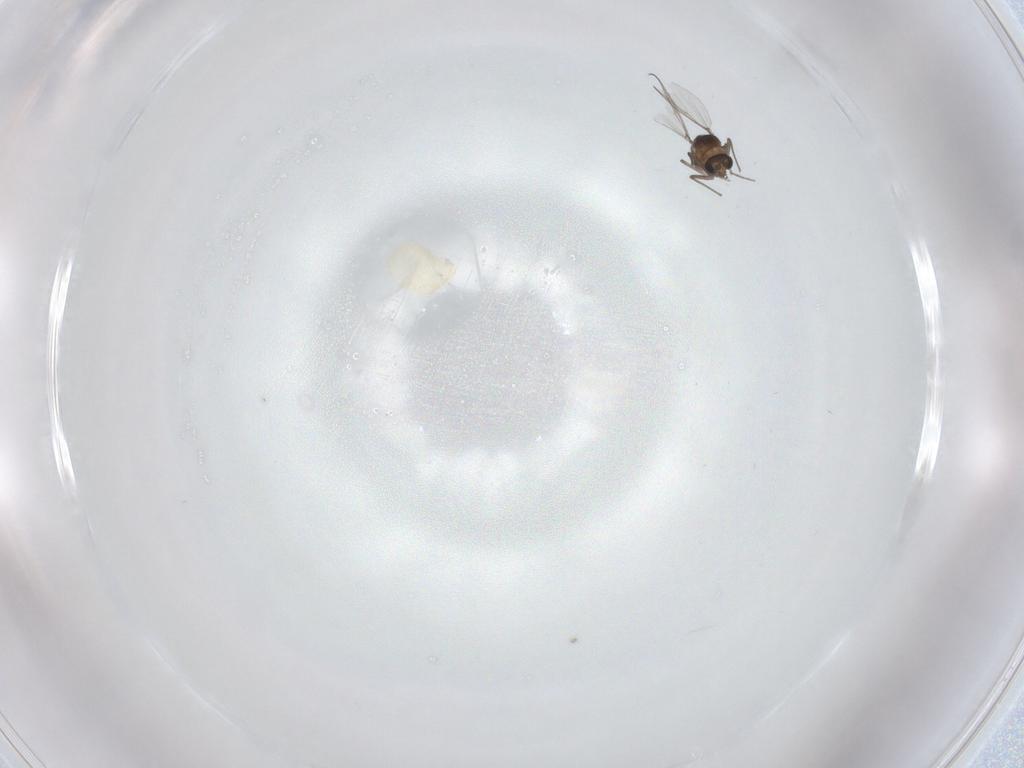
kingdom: Animalia
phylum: Arthropoda
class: Insecta
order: Diptera
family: Chironomidae
